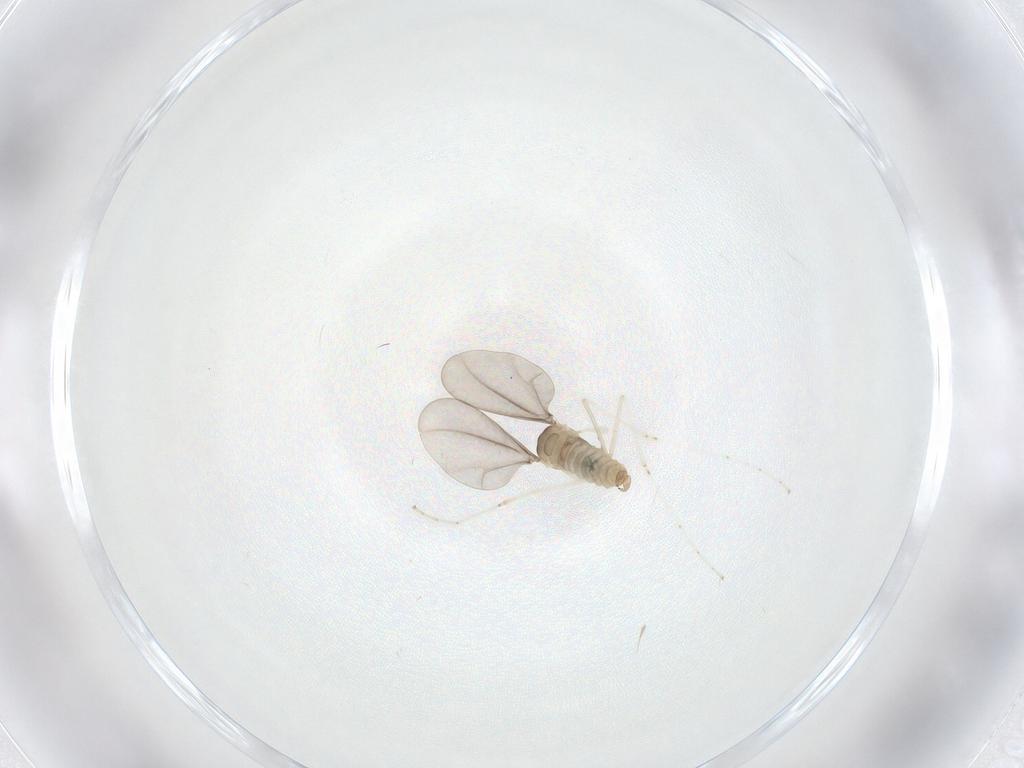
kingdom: Animalia
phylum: Arthropoda
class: Insecta
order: Diptera
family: Cecidomyiidae
